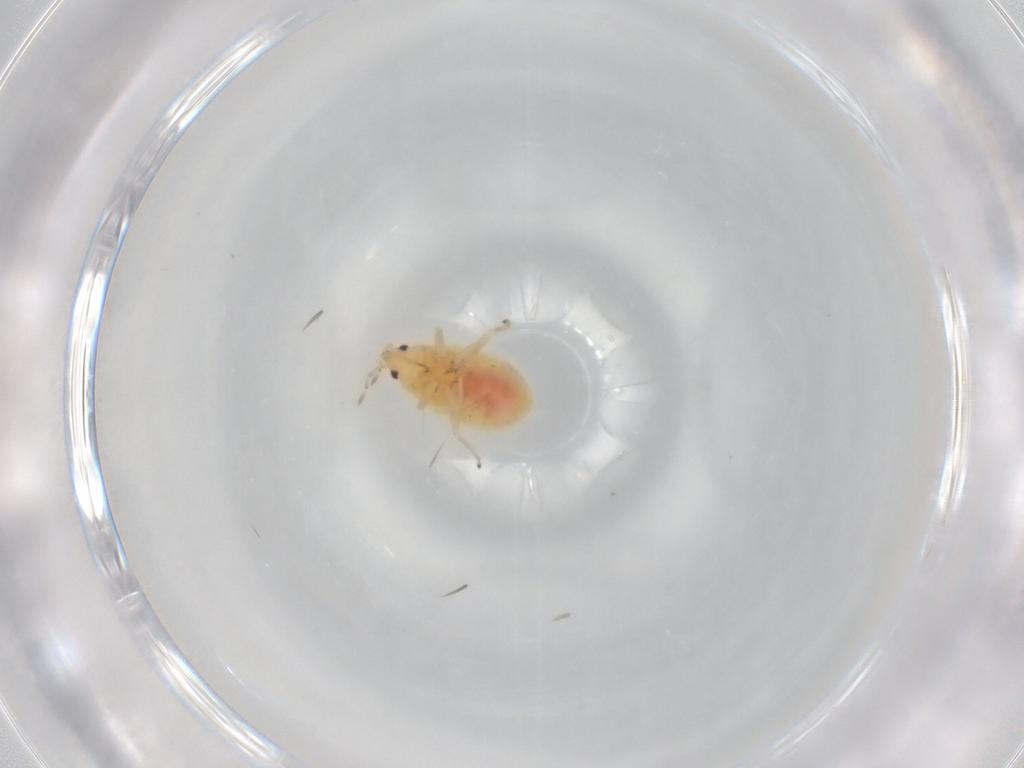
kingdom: Animalia
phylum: Arthropoda
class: Insecta
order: Hemiptera
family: Anthocoridae
